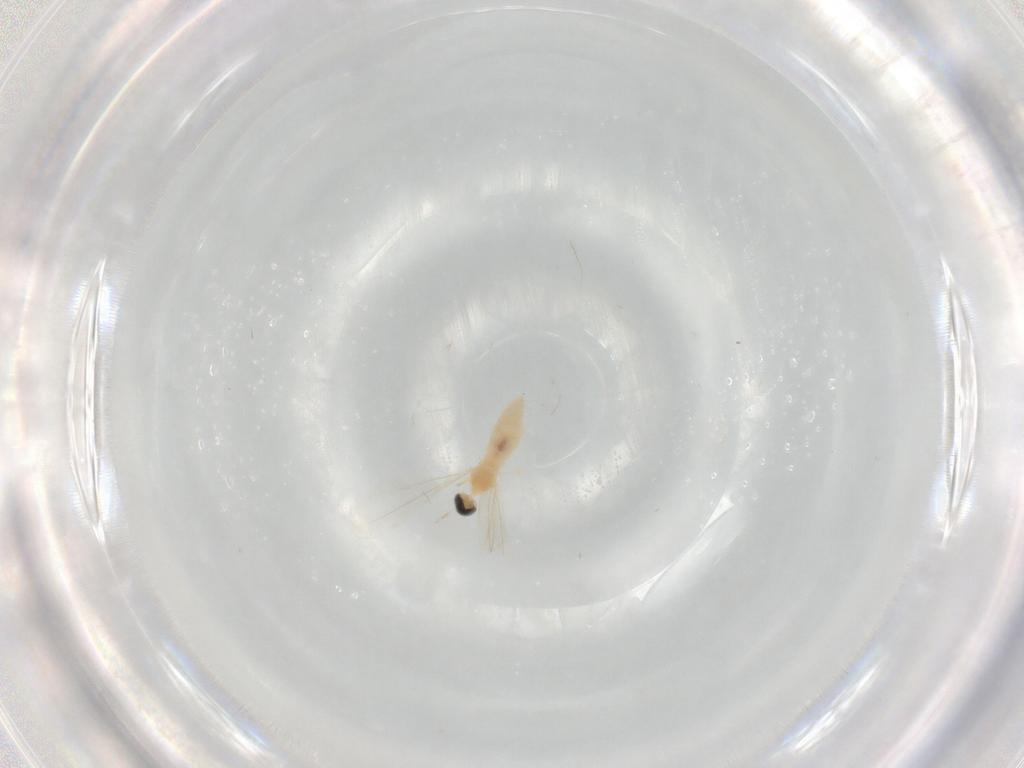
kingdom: Animalia
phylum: Arthropoda
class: Insecta
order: Diptera
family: Cecidomyiidae
